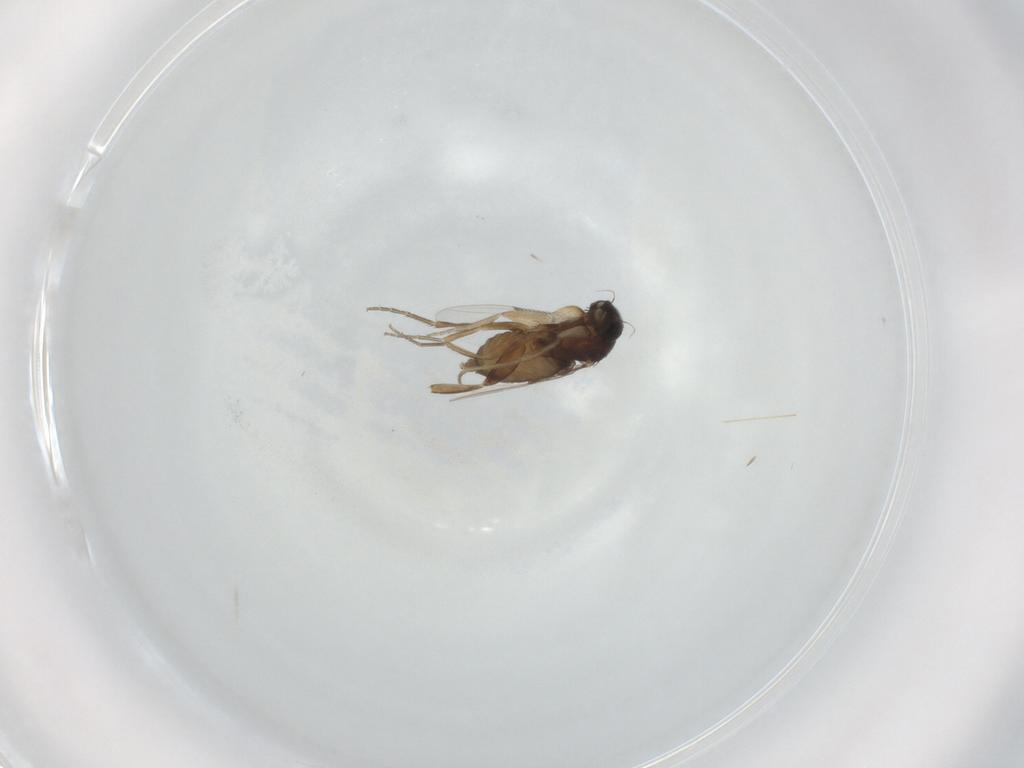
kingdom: Animalia
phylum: Arthropoda
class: Insecta
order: Diptera
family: Phoridae
